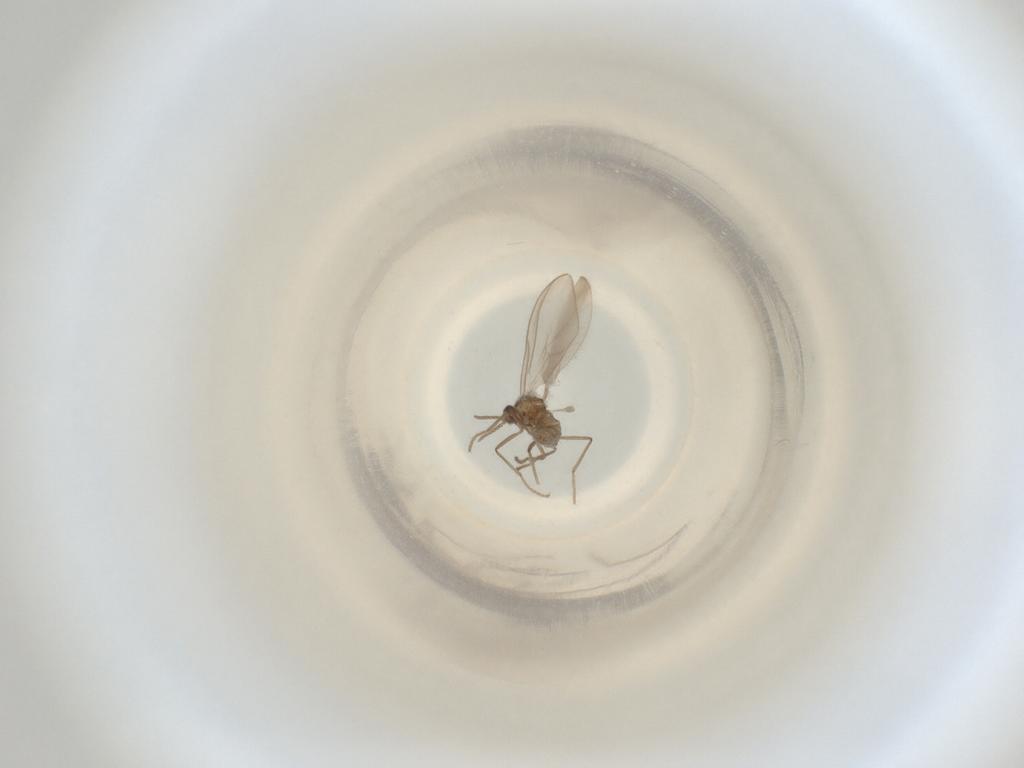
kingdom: Animalia
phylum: Arthropoda
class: Insecta
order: Diptera
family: Cecidomyiidae
